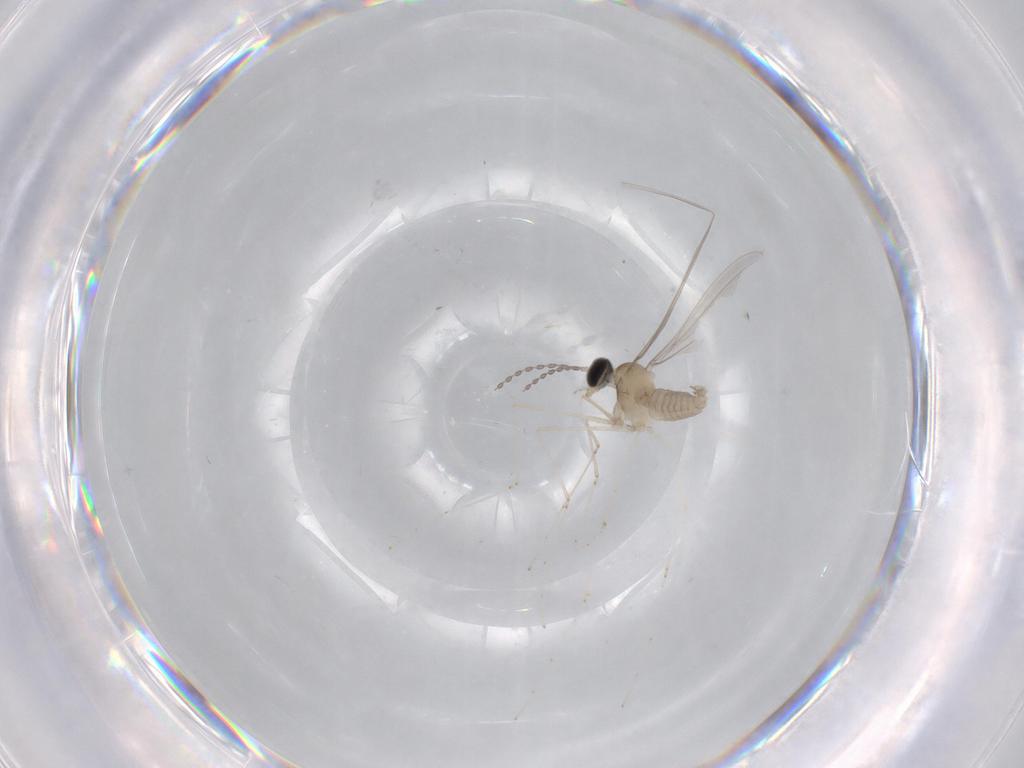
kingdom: Animalia
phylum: Arthropoda
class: Insecta
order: Diptera
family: Cecidomyiidae
